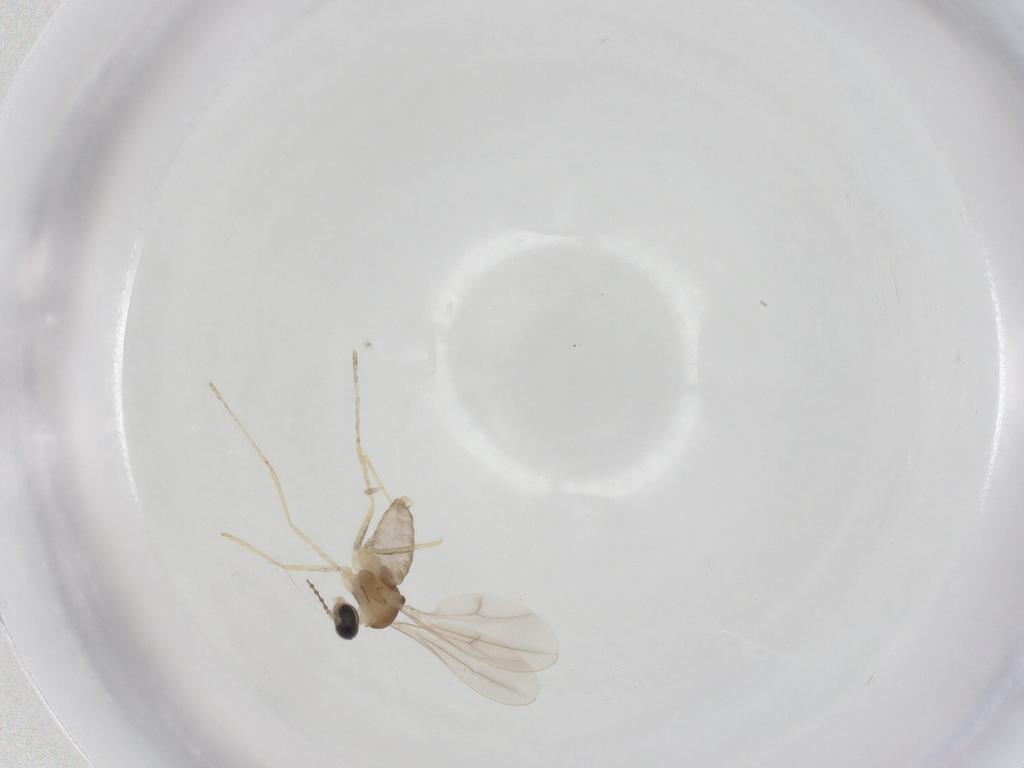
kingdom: Animalia
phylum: Arthropoda
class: Insecta
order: Diptera
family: Cecidomyiidae
